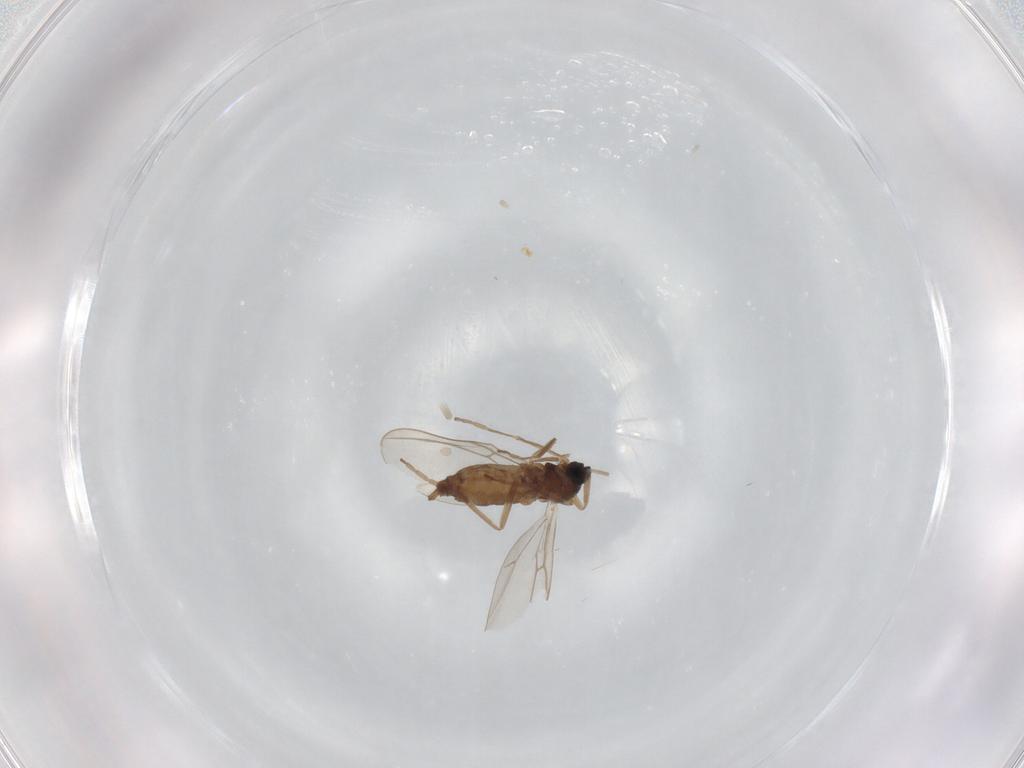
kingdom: Animalia
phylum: Arthropoda
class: Insecta
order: Diptera
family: Cecidomyiidae
